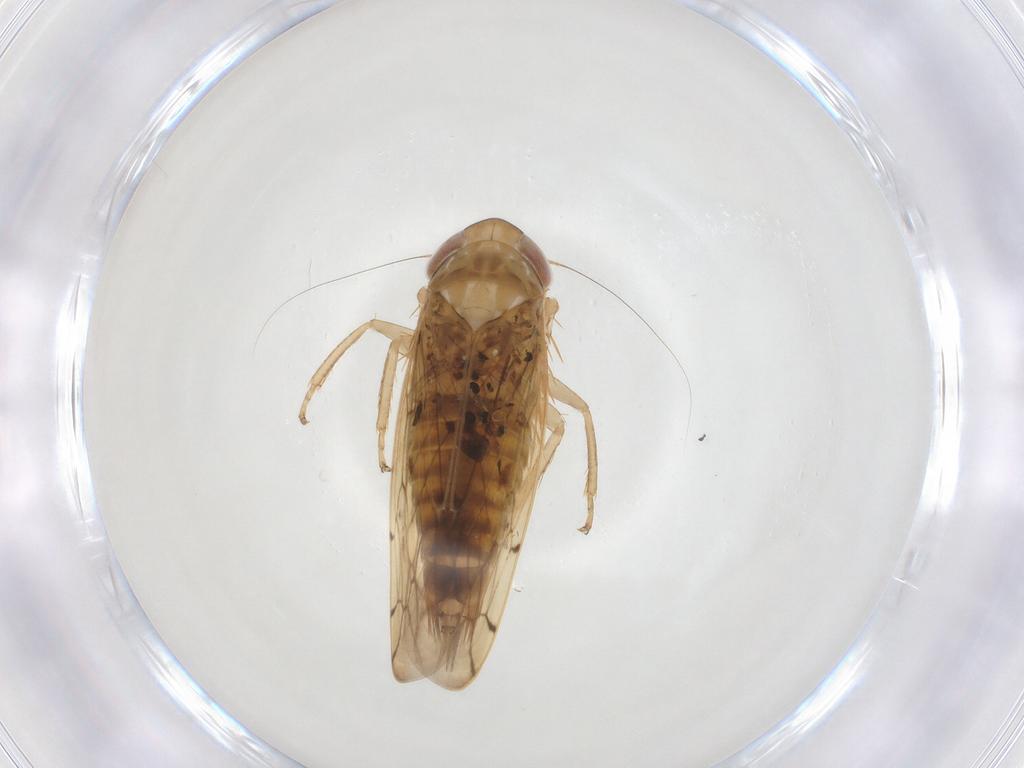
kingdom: Animalia
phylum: Arthropoda
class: Insecta
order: Hemiptera
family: Cicadellidae
